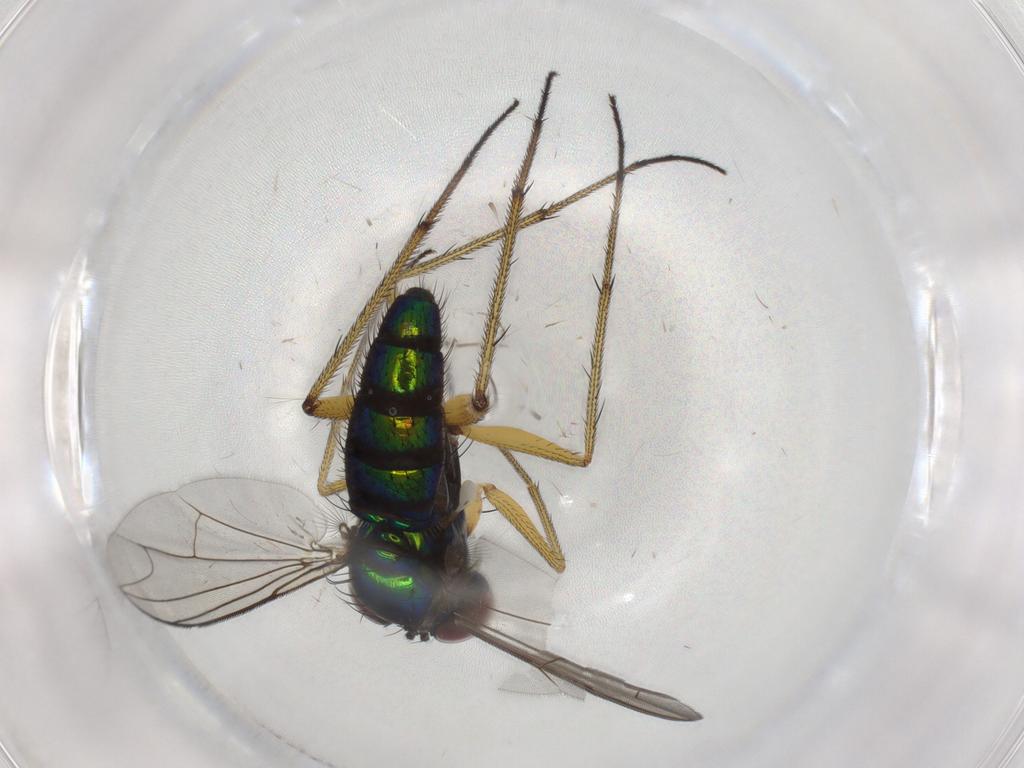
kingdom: Animalia
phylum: Arthropoda
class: Insecta
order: Diptera
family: Dolichopodidae
